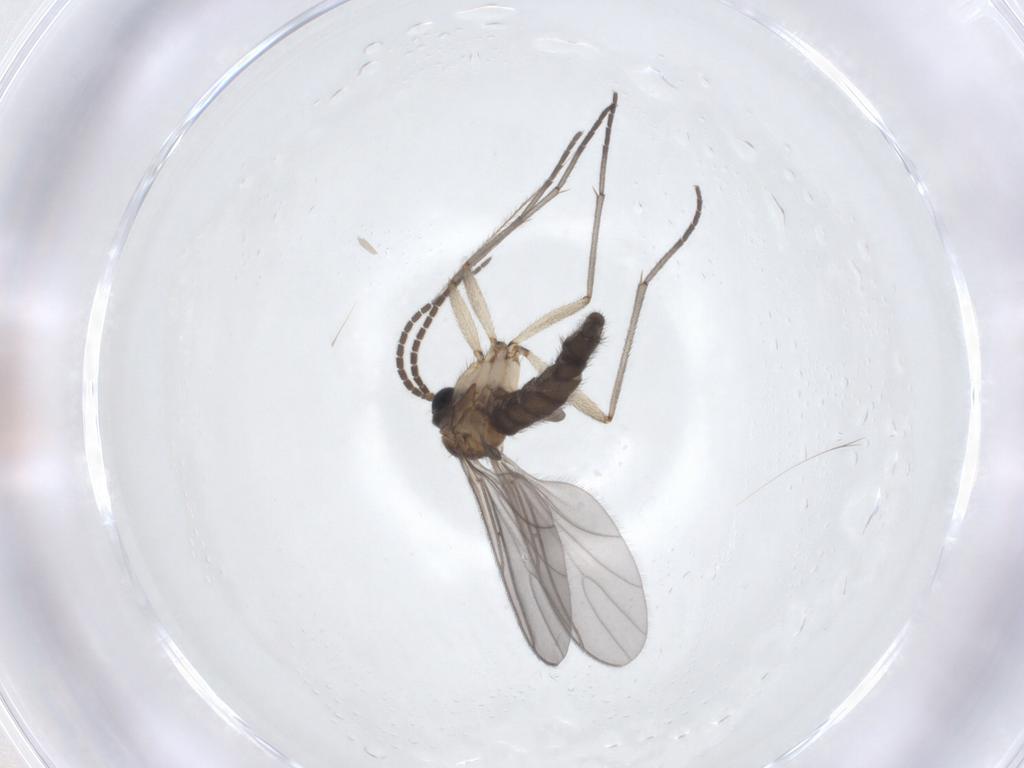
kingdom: Animalia
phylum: Arthropoda
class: Insecta
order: Diptera
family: Sciaridae
